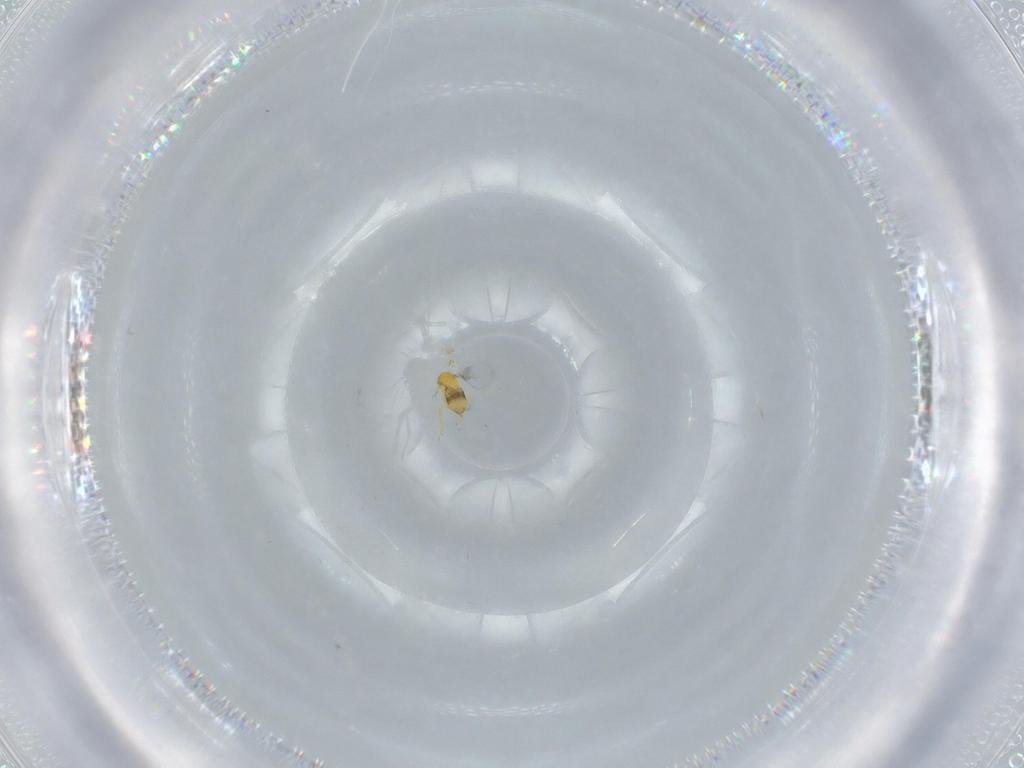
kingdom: Animalia
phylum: Arthropoda
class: Insecta
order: Hymenoptera
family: Trichogrammatidae
